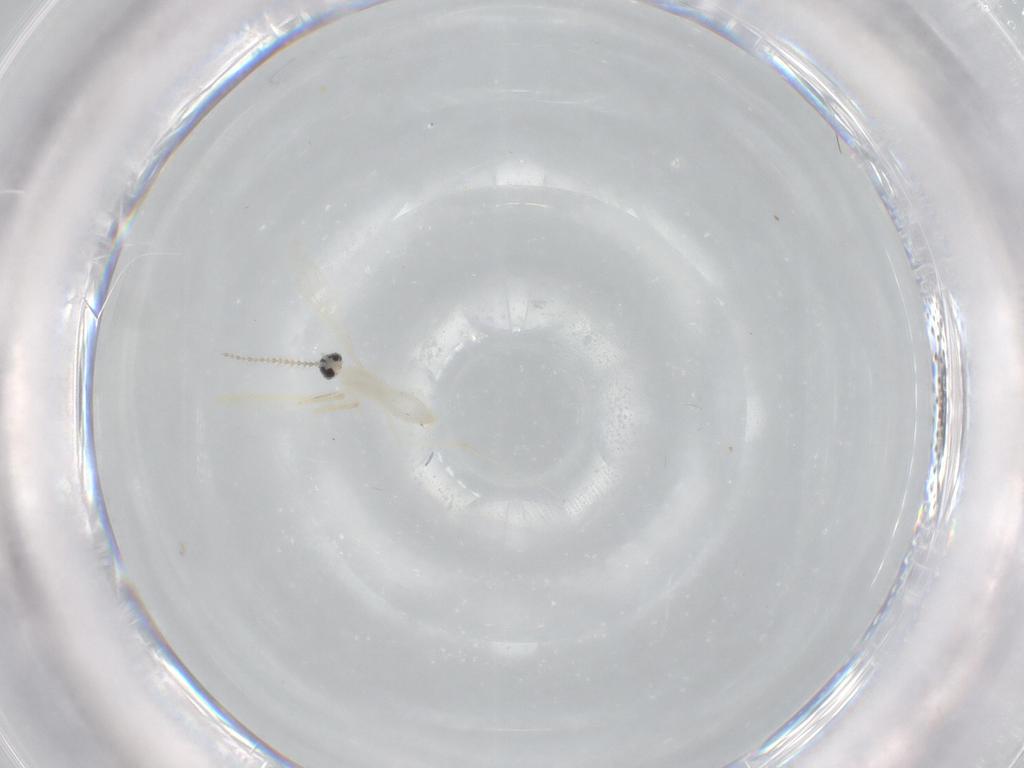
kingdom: Animalia
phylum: Arthropoda
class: Insecta
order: Diptera
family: Cecidomyiidae
